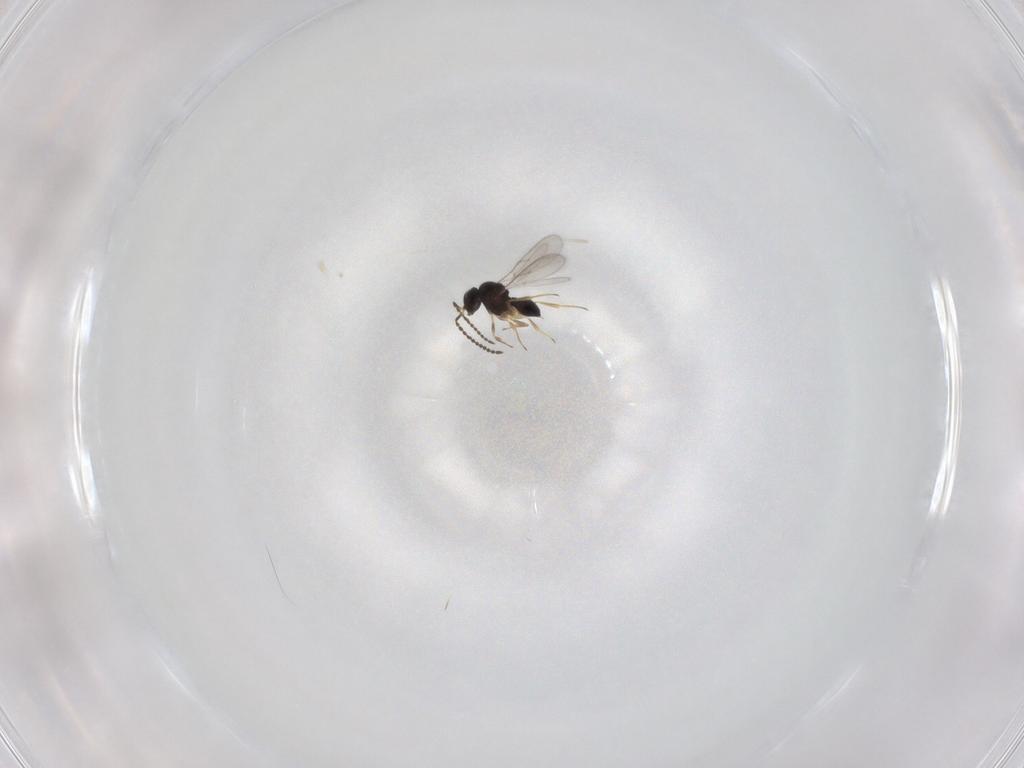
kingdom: Animalia
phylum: Arthropoda
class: Insecta
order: Hymenoptera
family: Scelionidae
